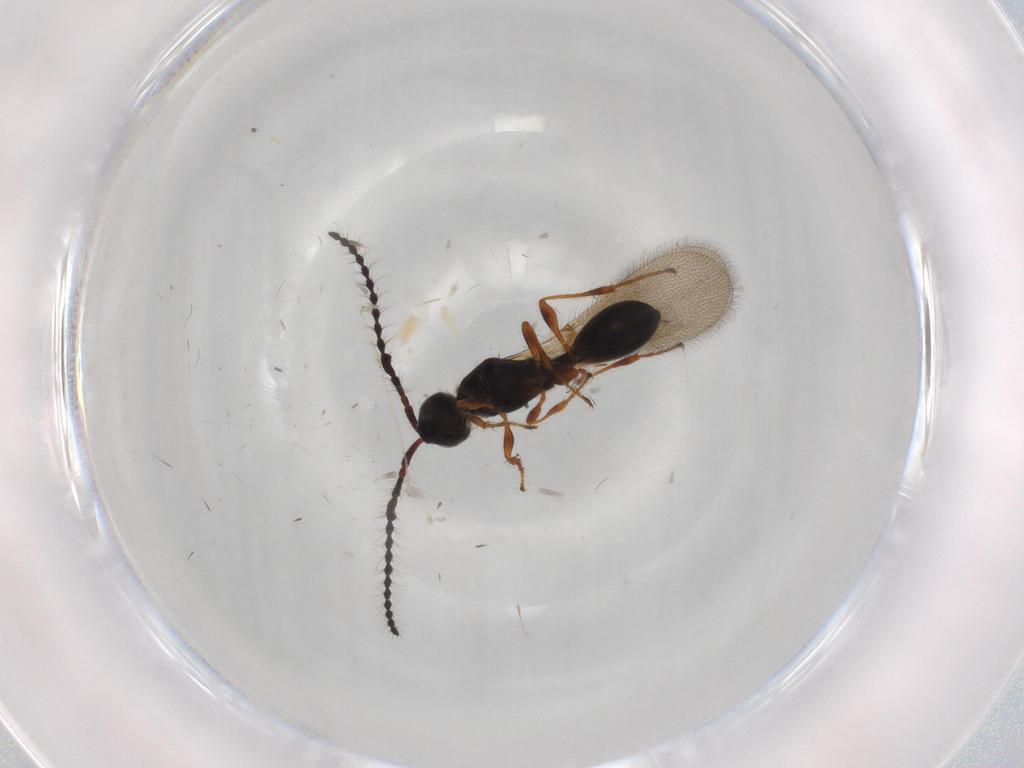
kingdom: Animalia
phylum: Arthropoda
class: Insecta
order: Hymenoptera
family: Diapriidae
